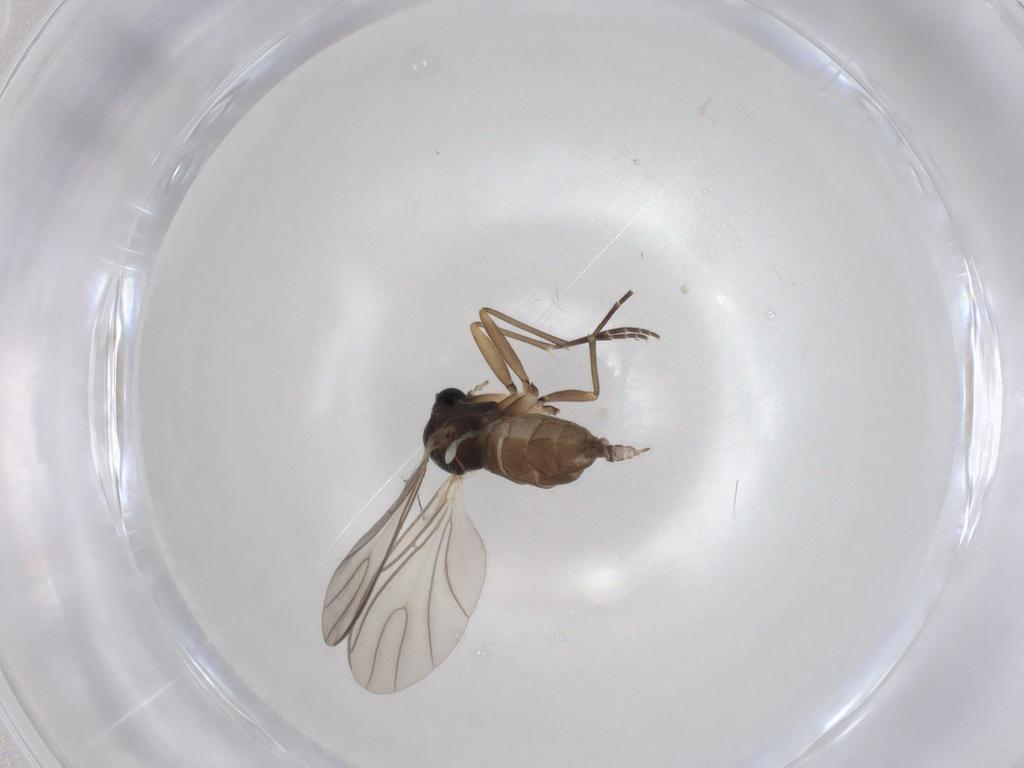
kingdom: Animalia
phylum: Arthropoda
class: Insecta
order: Diptera
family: Sciaridae
